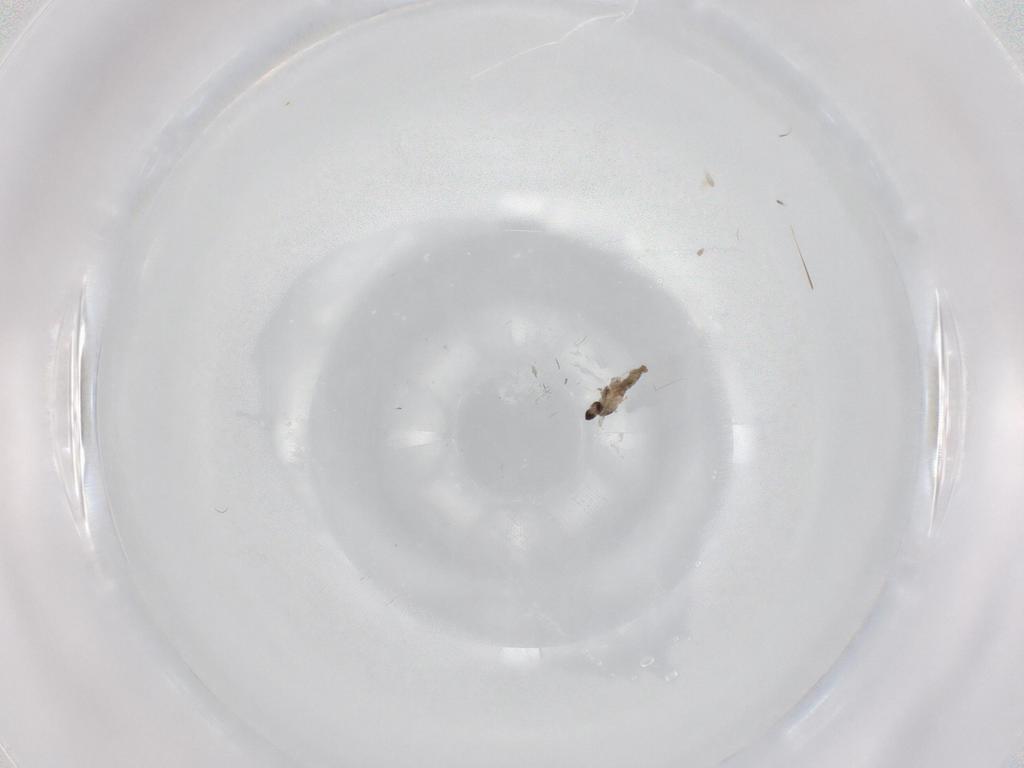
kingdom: Animalia
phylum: Arthropoda
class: Insecta
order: Diptera
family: Cecidomyiidae
